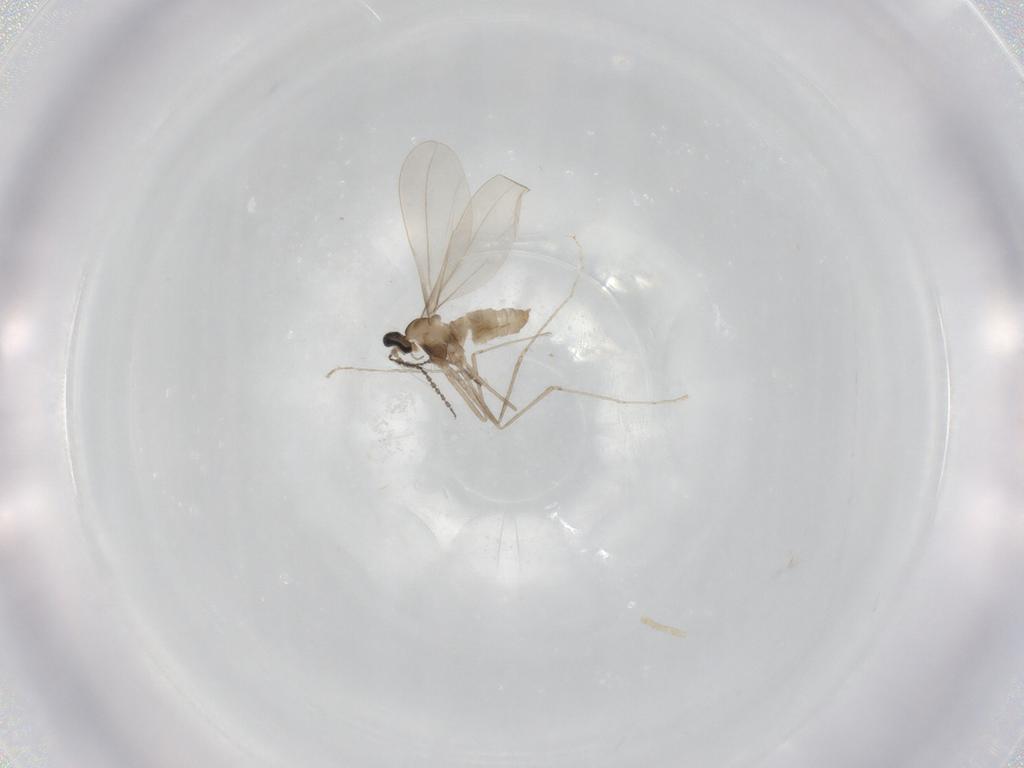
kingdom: Animalia
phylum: Arthropoda
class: Insecta
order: Diptera
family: Cecidomyiidae
